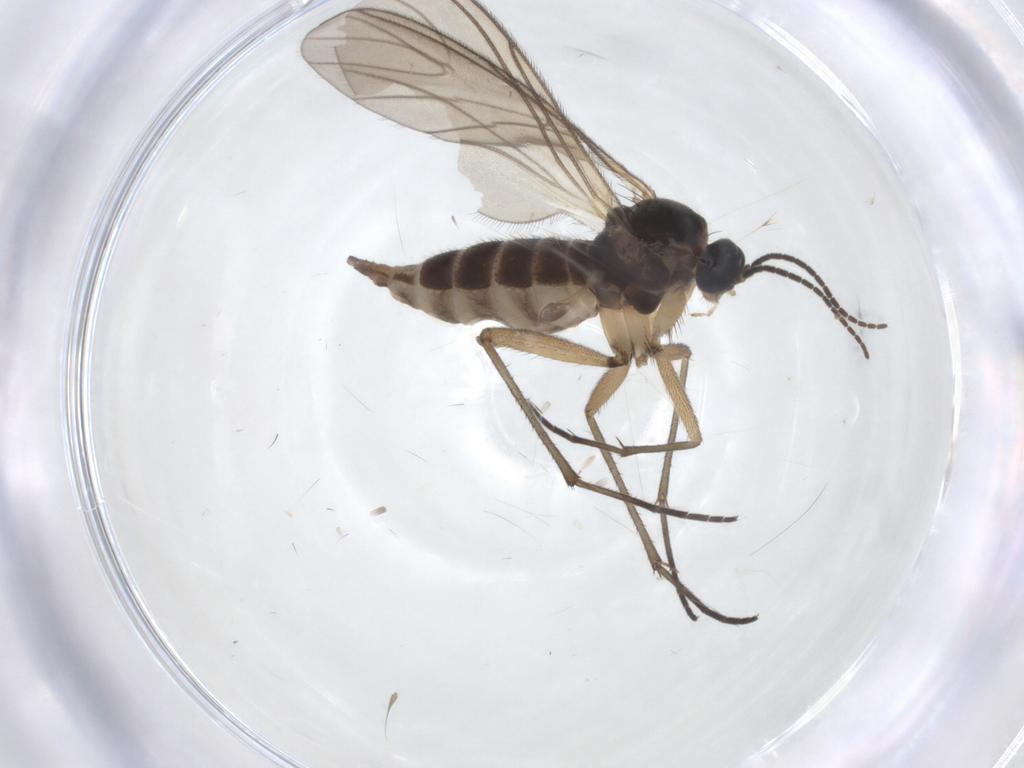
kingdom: Animalia
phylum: Arthropoda
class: Insecta
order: Diptera
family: Sciaridae
